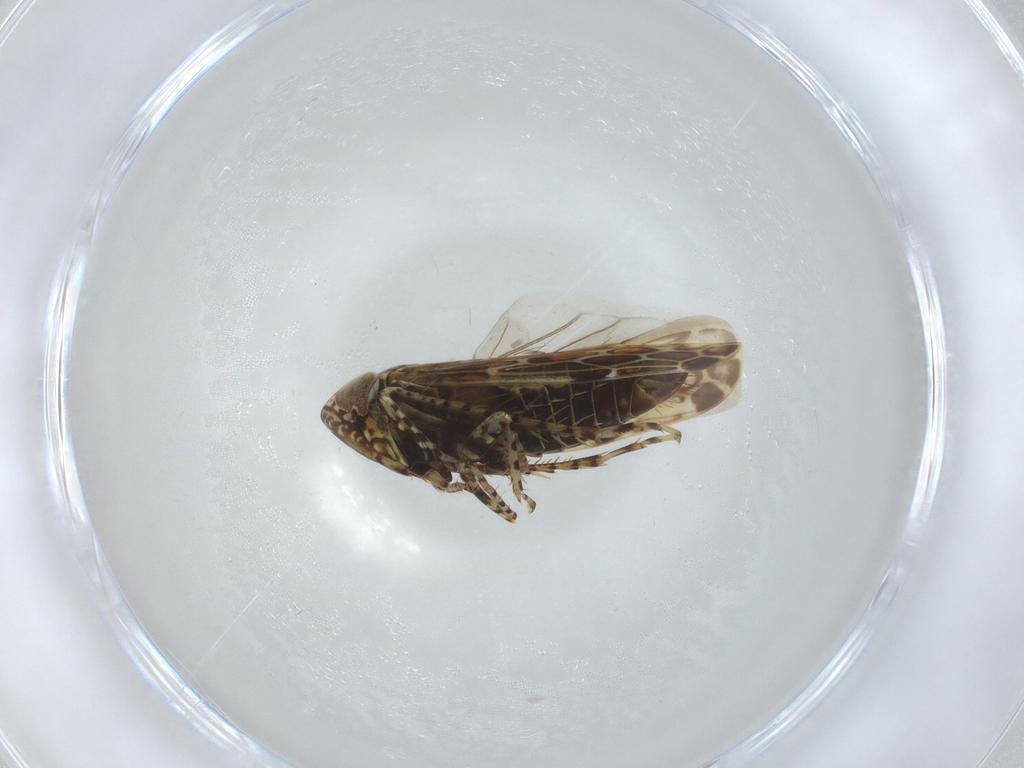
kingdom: Animalia
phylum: Arthropoda
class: Insecta
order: Hemiptera
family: Cicadellidae
